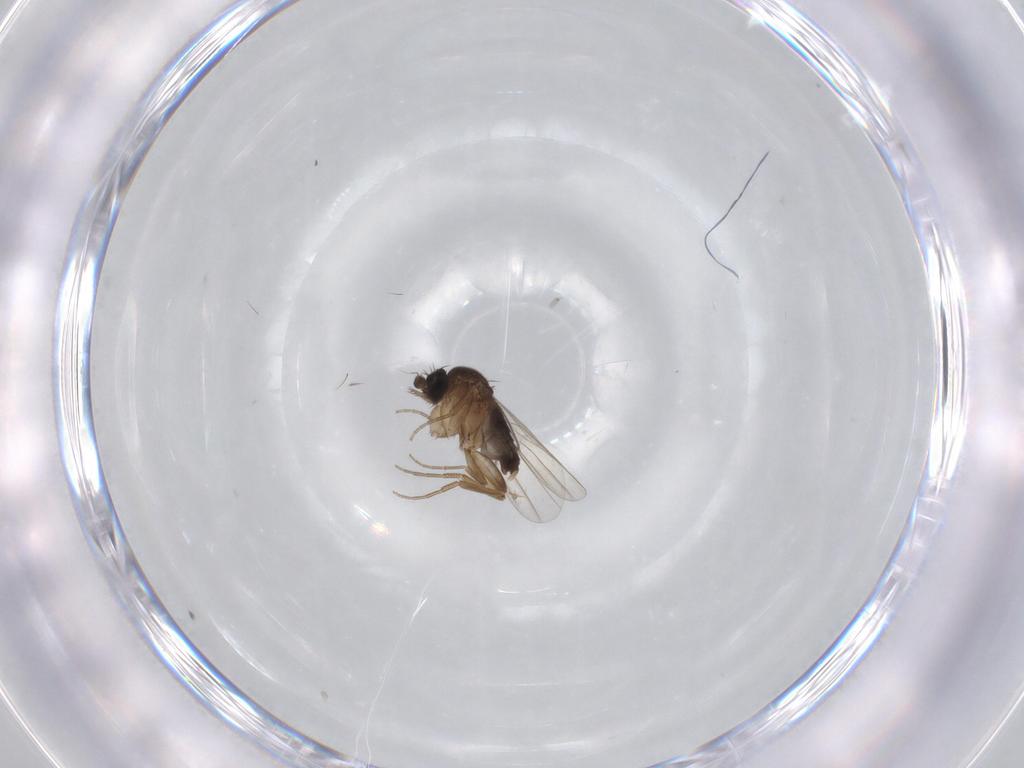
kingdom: Animalia
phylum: Arthropoda
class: Insecta
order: Diptera
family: Phoridae
